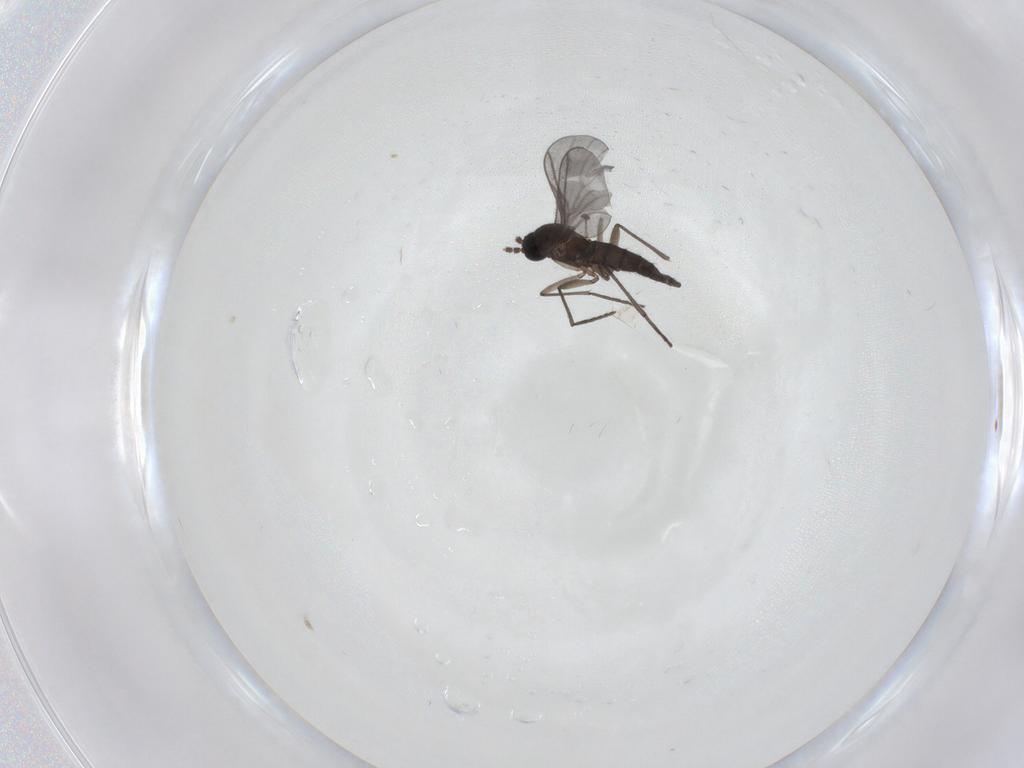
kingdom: Animalia
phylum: Arthropoda
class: Insecta
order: Diptera
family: Sciaridae
